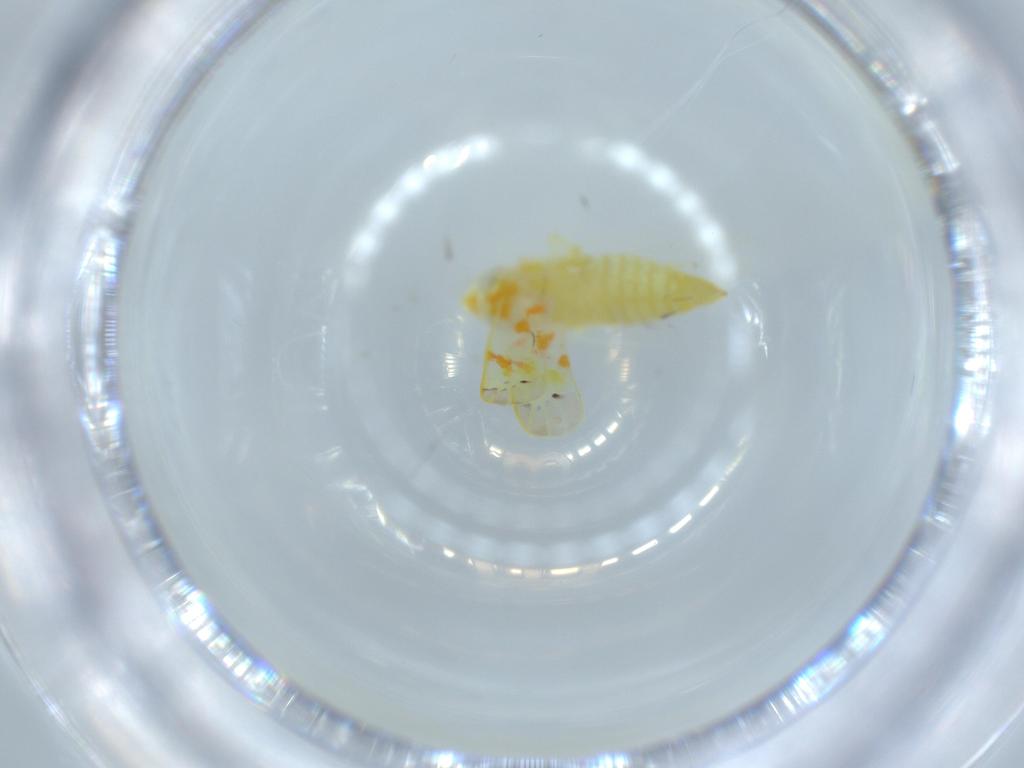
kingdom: Animalia
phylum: Arthropoda
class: Insecta
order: Hemiptera
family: Cicadellidae
